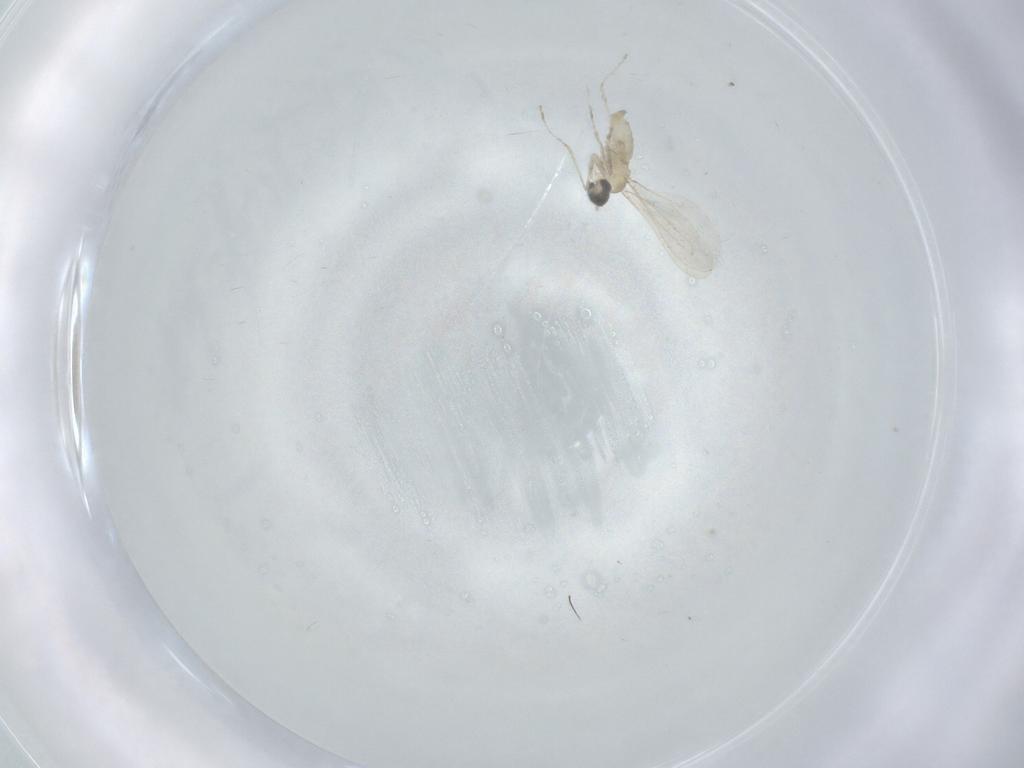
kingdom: Animalia
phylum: Arthropoda
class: Insecta
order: Diptera
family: Cecidomyiidae
